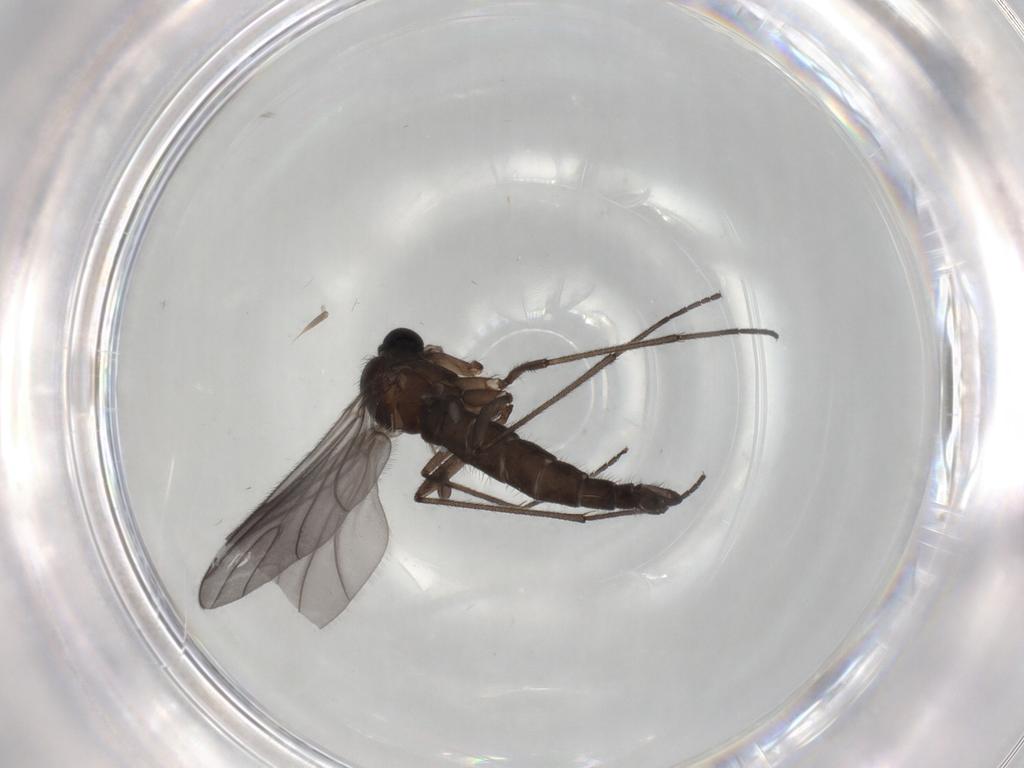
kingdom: Animalia
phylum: Arthropoda
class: Insecta
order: Diptera
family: Sciaridae
